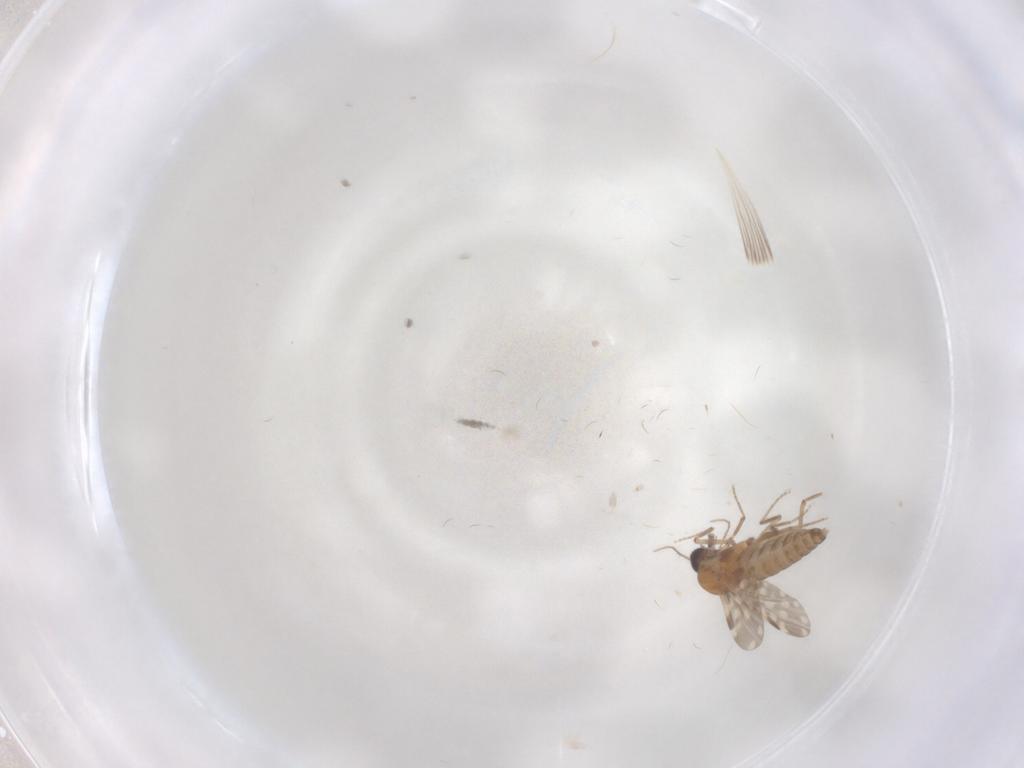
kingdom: Animalia
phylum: Arthropoda
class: Insecta
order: Diptera
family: Ceratopogonidae
